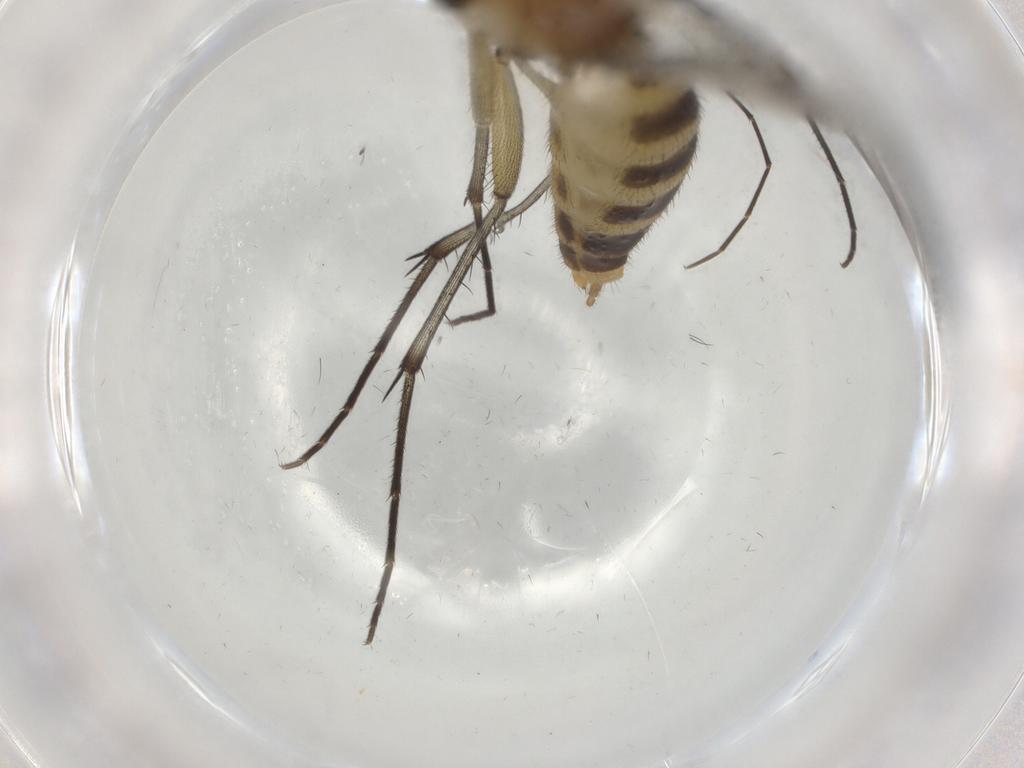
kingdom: Animalia
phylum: Arthropoda
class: Insecta
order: Diptera
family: Mycetophilidae
